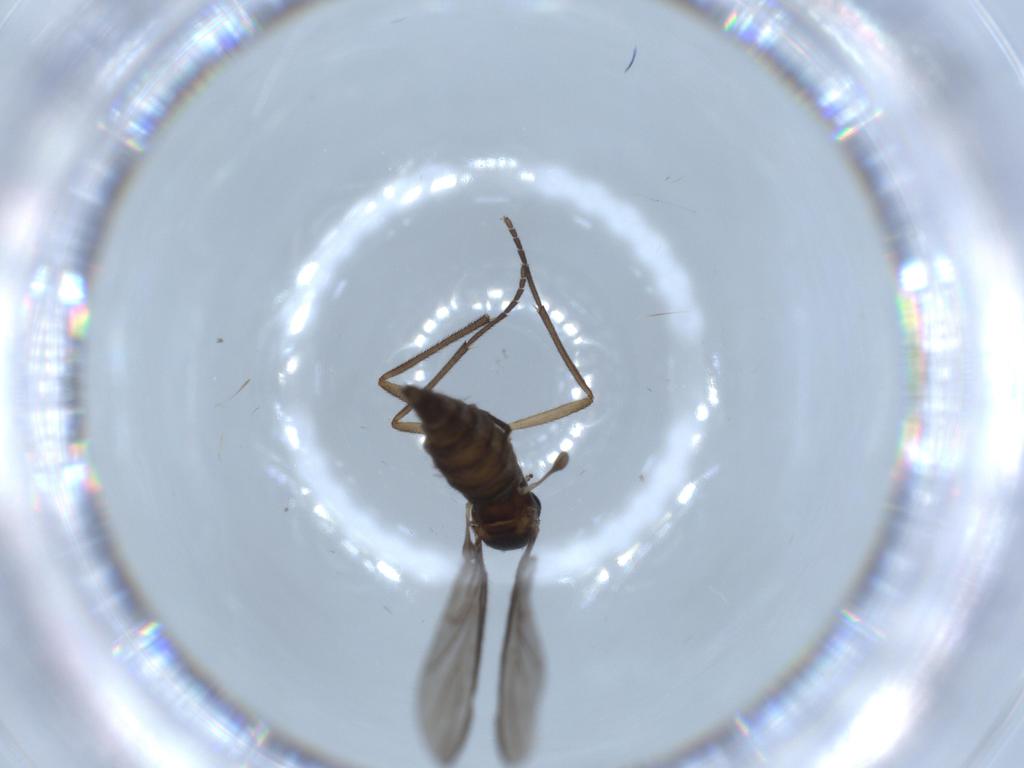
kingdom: Animalia
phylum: Arthropoda
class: Insecta
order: Diptera
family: Sciaridae
